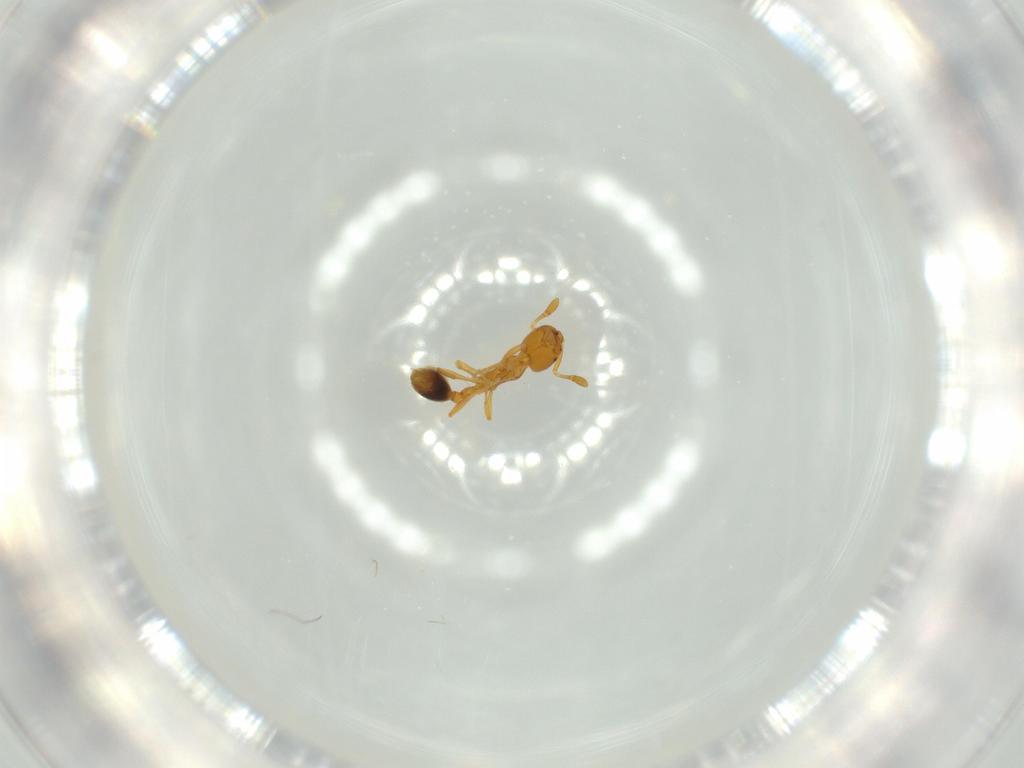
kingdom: Animalia
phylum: Arthropoda
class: Insecta
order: Hymenoptera
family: Formicidae
